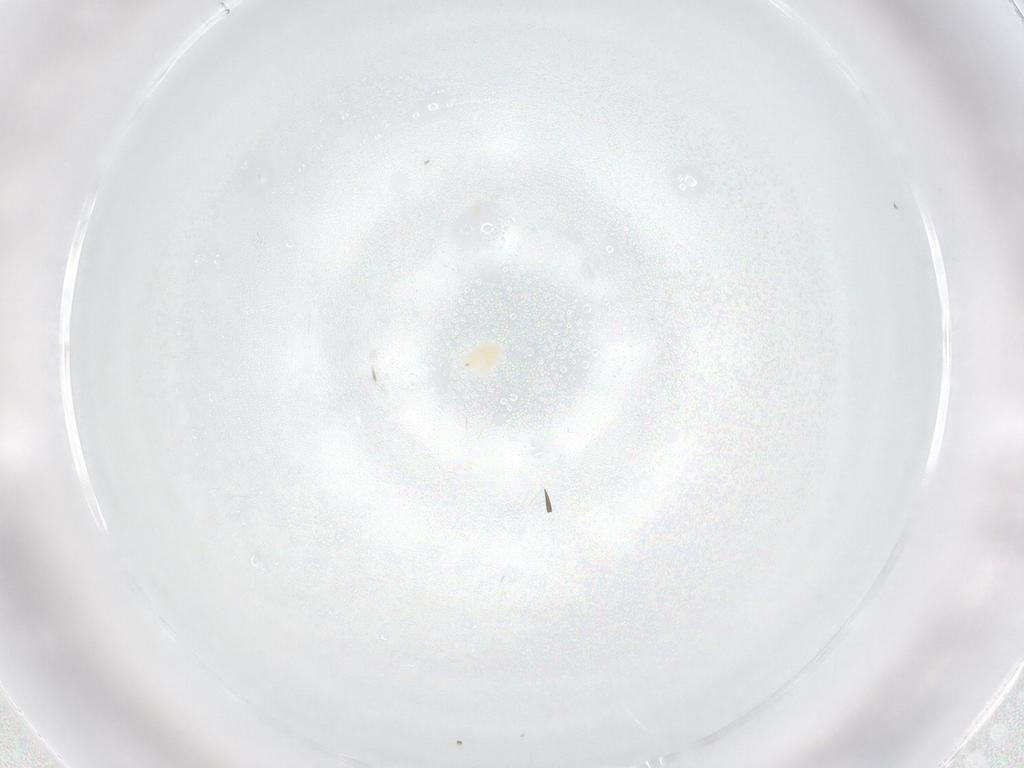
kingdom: Animalia
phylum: Arthropoda
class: Arachnida
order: Trombidiformes
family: Tetranychidae
